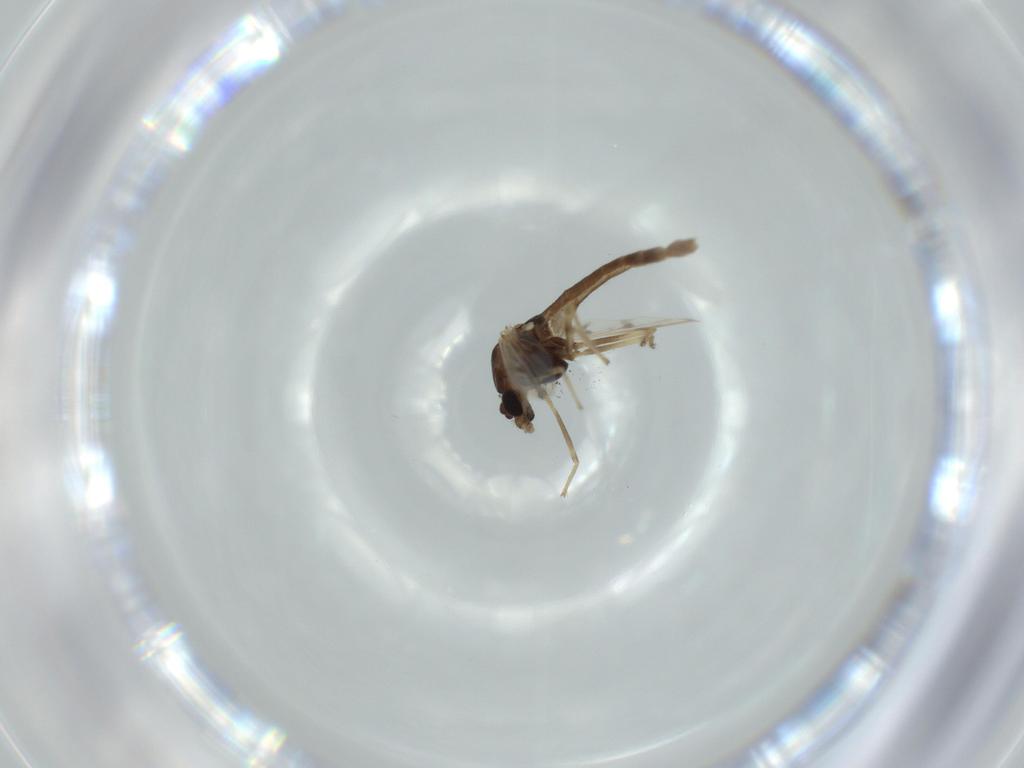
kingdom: Animalia
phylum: Arthropoda
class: Insecta
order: Diptera
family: Chironomidae
